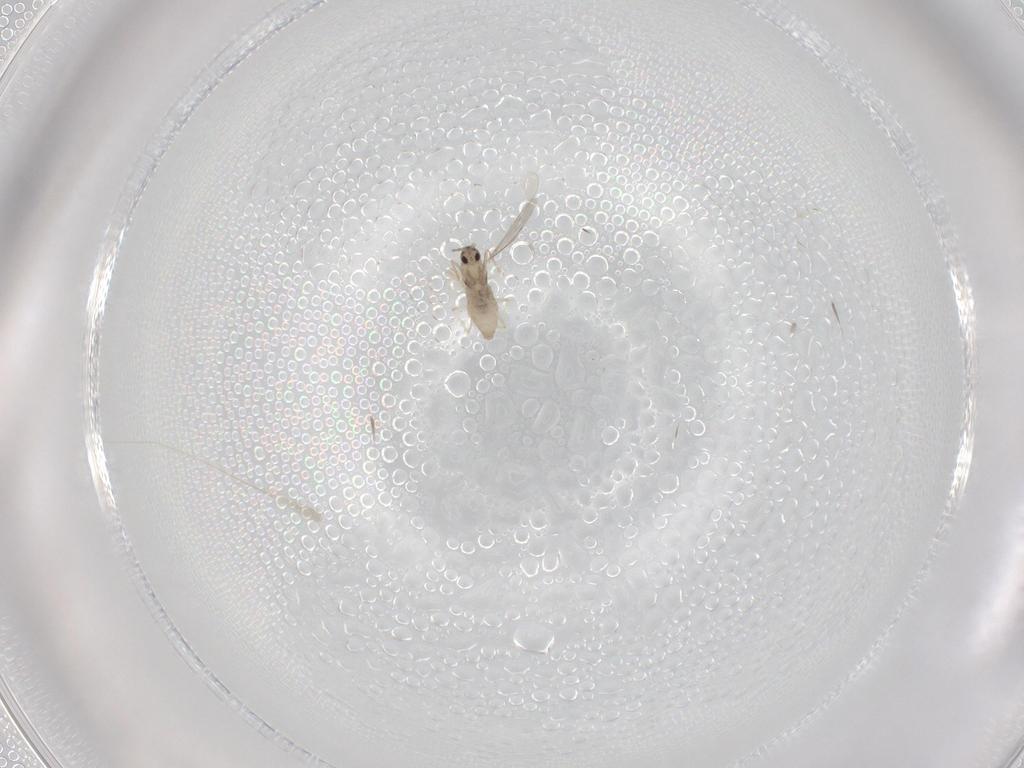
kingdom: Animalia
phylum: Arthropoda
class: Insecta
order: Diptera
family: Cecidomyiidae
